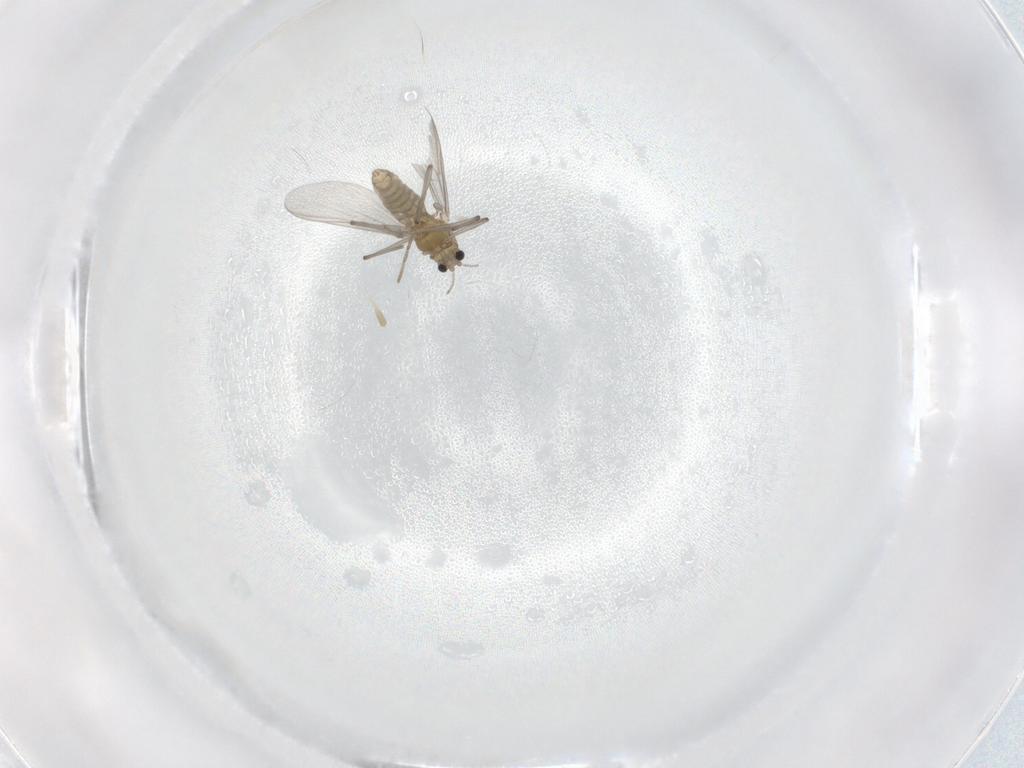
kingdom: Animalia
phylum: Arthropoda
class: Insecta
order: Diptera
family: Chironomidae
